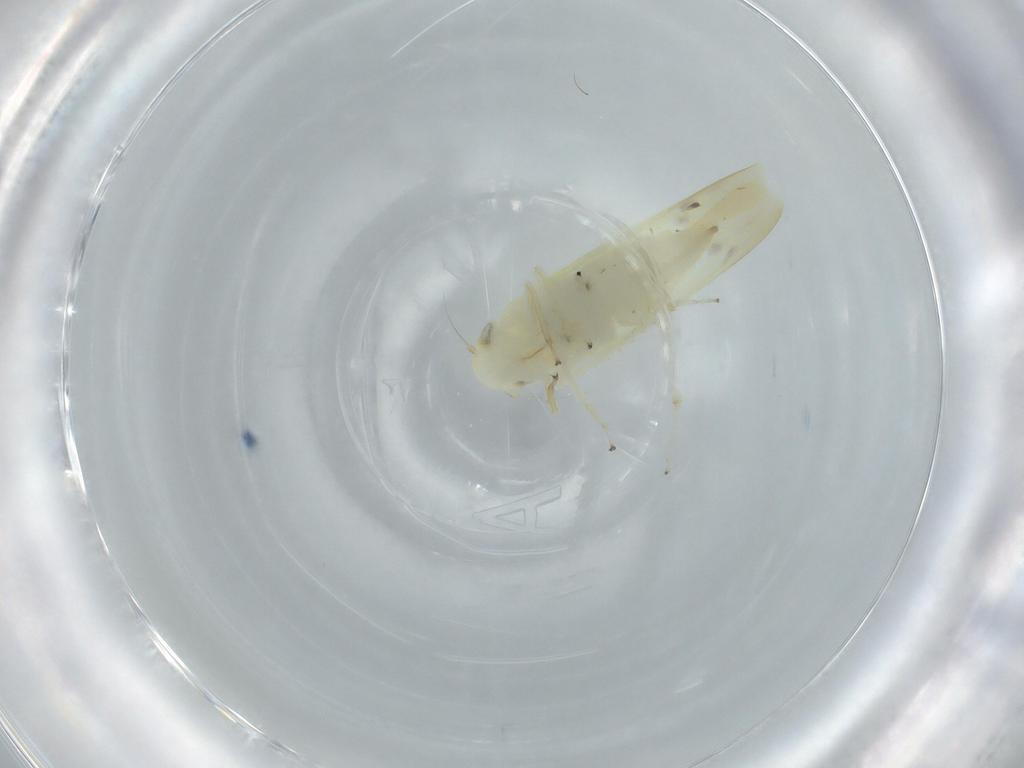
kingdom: Animalia
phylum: Arthropoda
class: Insecta
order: Hemiptera
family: Cicadellidae
